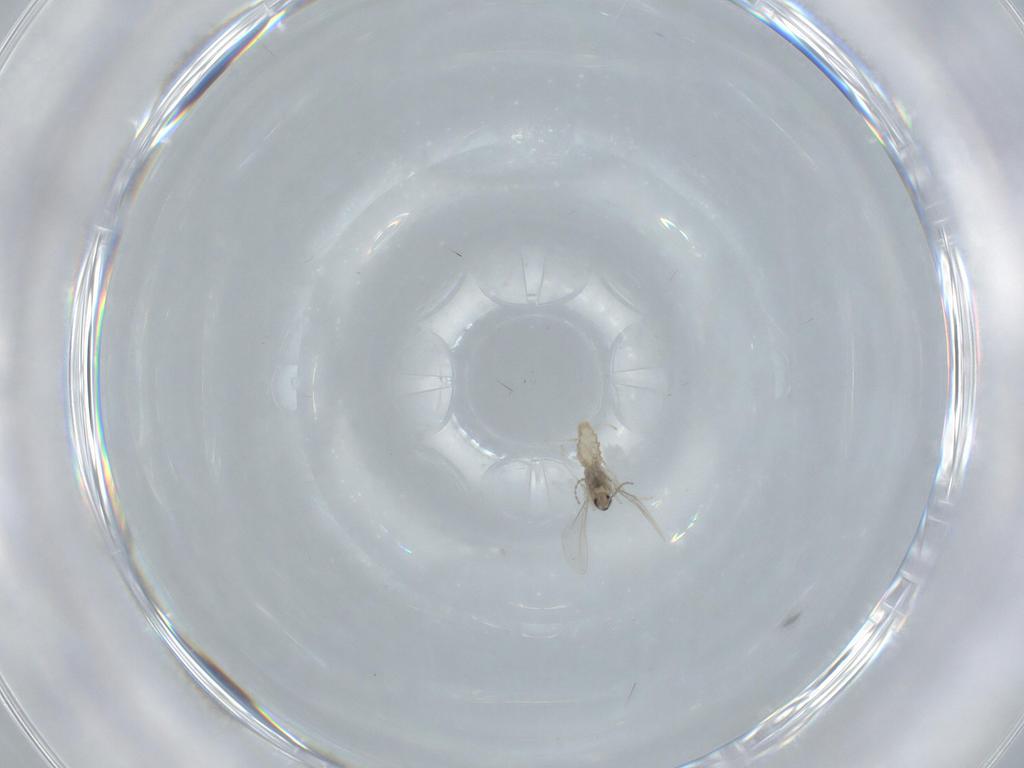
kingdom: Animalia
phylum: Arthropoda
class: Insecta
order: Diptera
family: Cecidomyiidae
